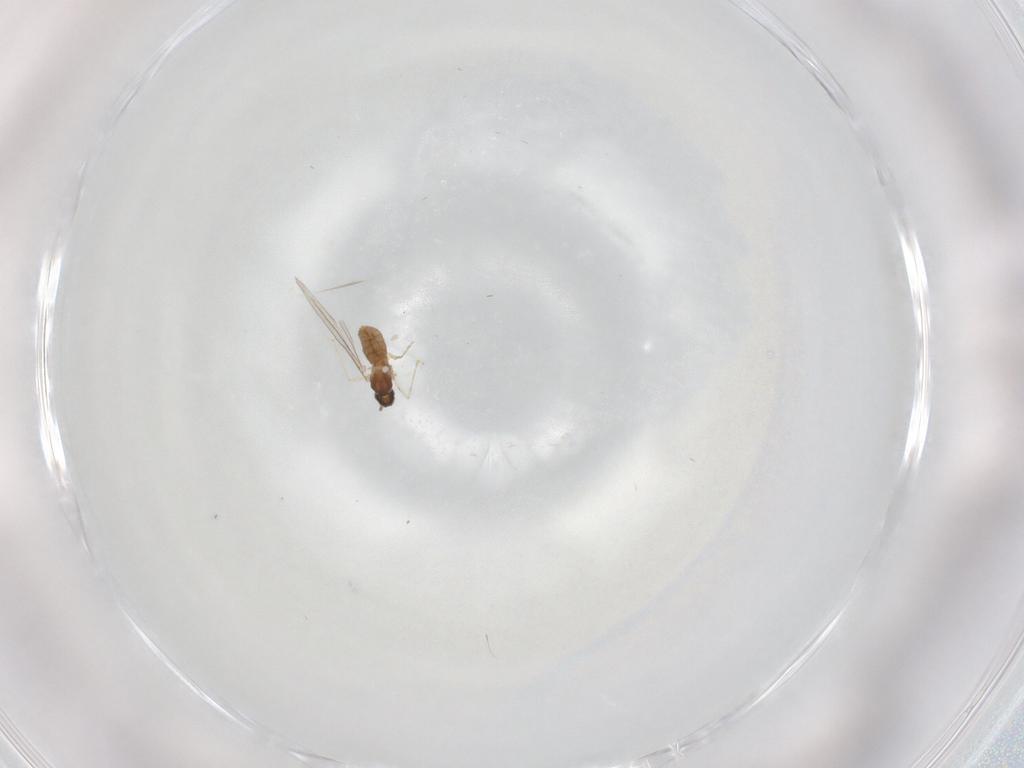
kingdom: Animalia
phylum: Arthropoda
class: Insecta
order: Diptera
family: Cecidomyiidae
